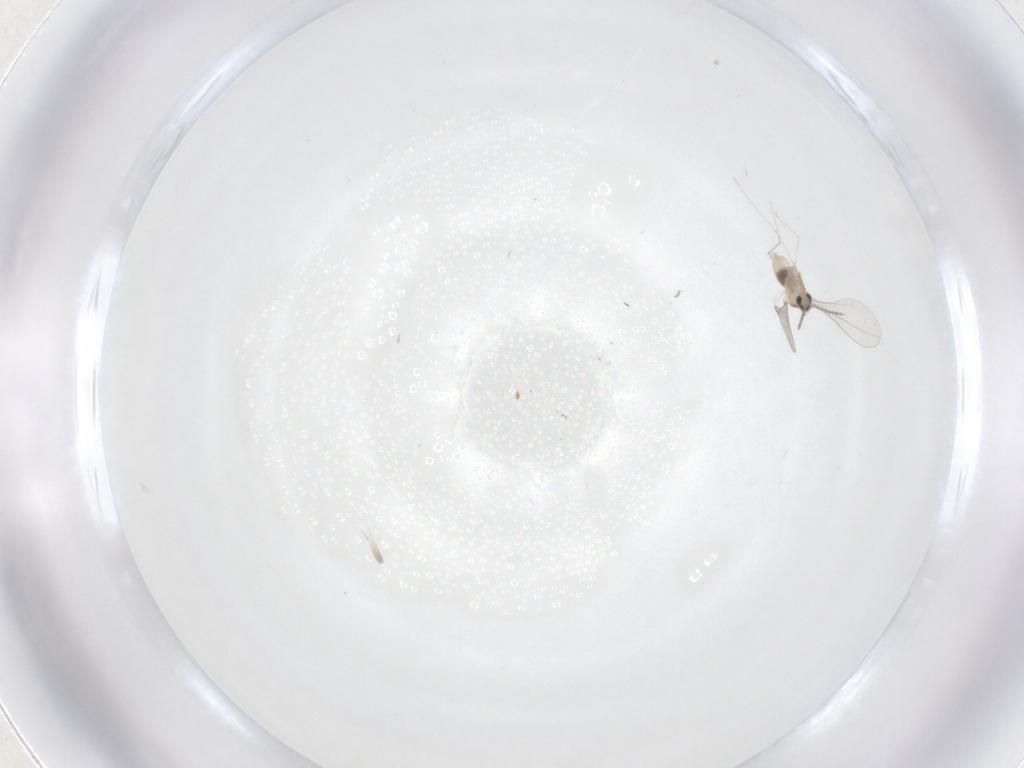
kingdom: Animalia
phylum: Arthropoda
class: Insecta
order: Diptera
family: Cecidomyiidae
